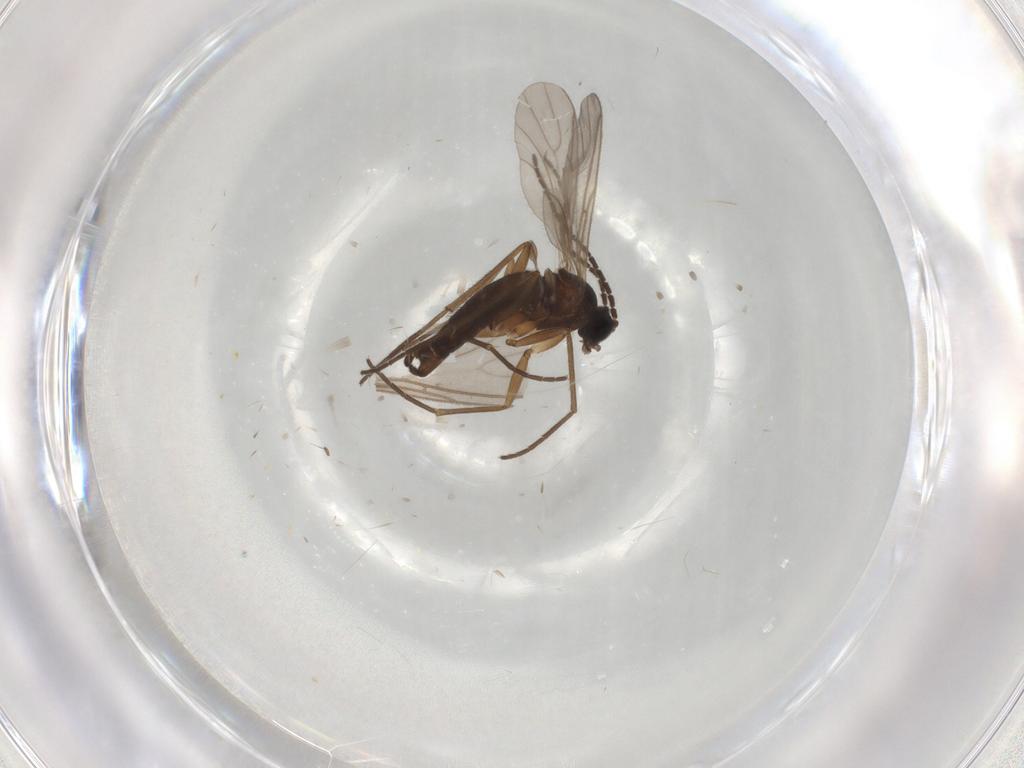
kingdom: Animalia
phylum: Arthropoda
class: Insecta
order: Diptera
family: Sciaridae
